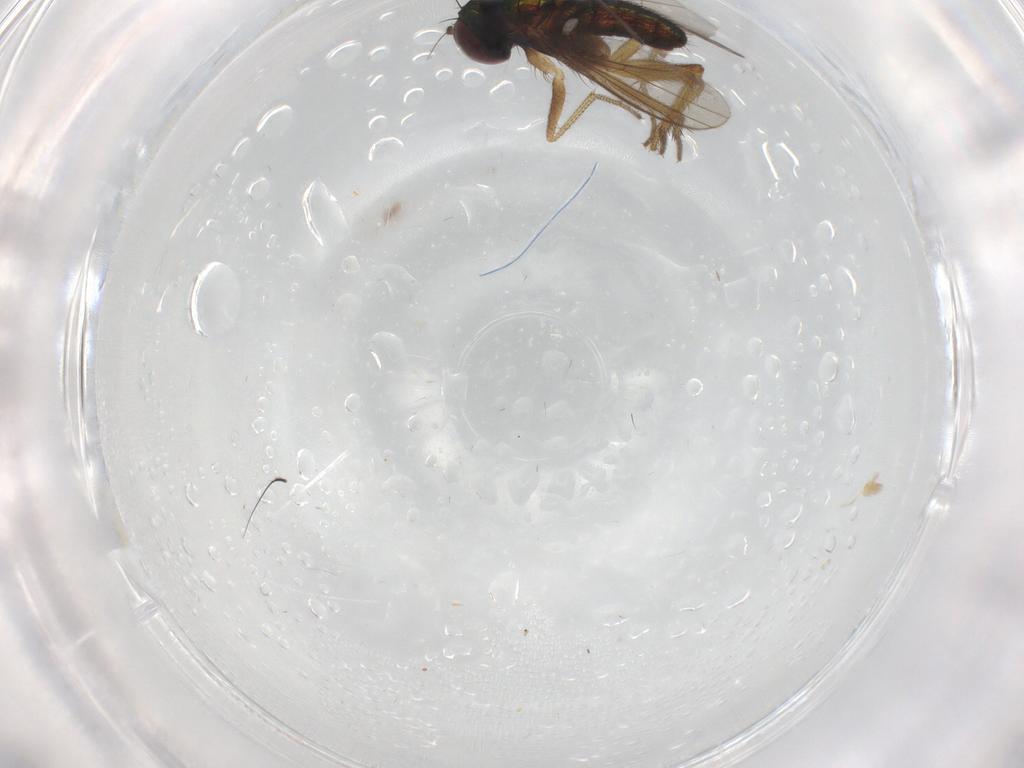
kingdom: Animalia
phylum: Arthropoda
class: Insecta
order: Diptera
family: Dolichopodidae
